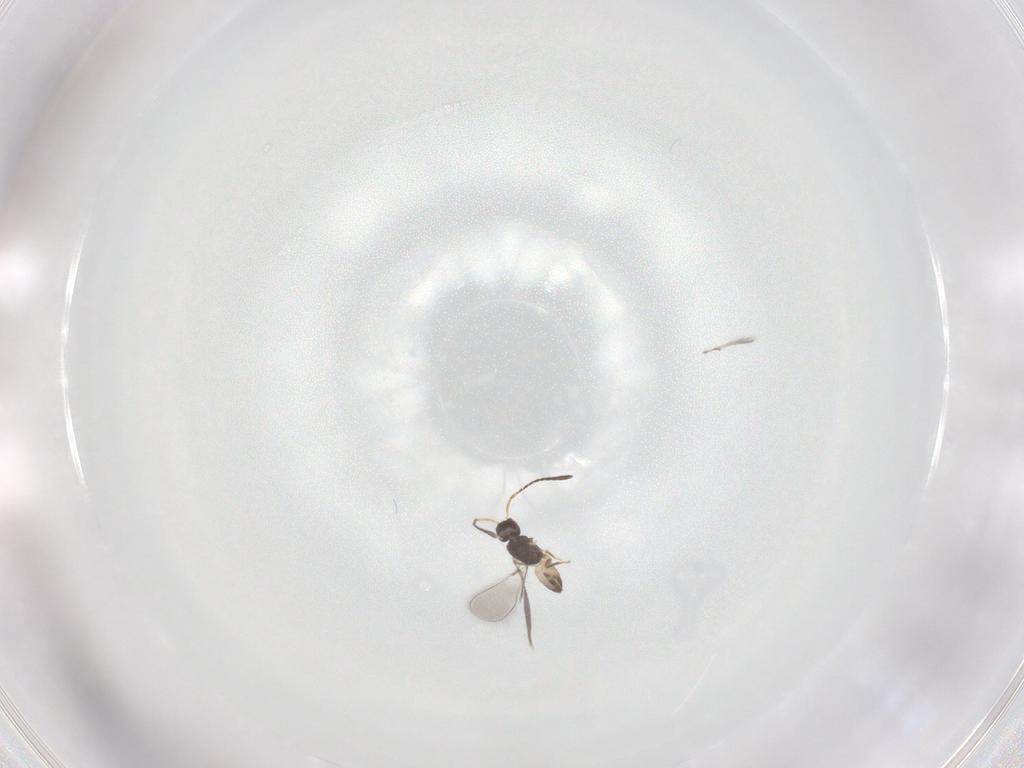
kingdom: Animalia
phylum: Arthropoda
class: Insecta
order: Hymenoptera
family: Mymaridae
